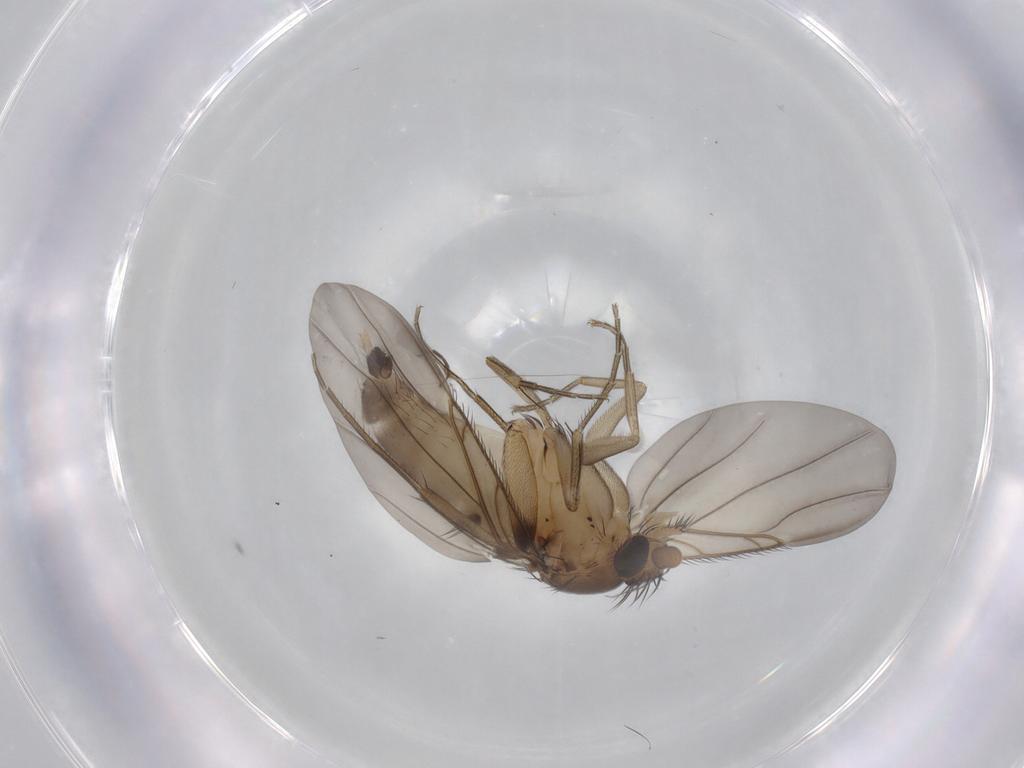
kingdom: Animalia
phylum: Arthropoda
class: Insecta
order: Diptera
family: Phoridae
